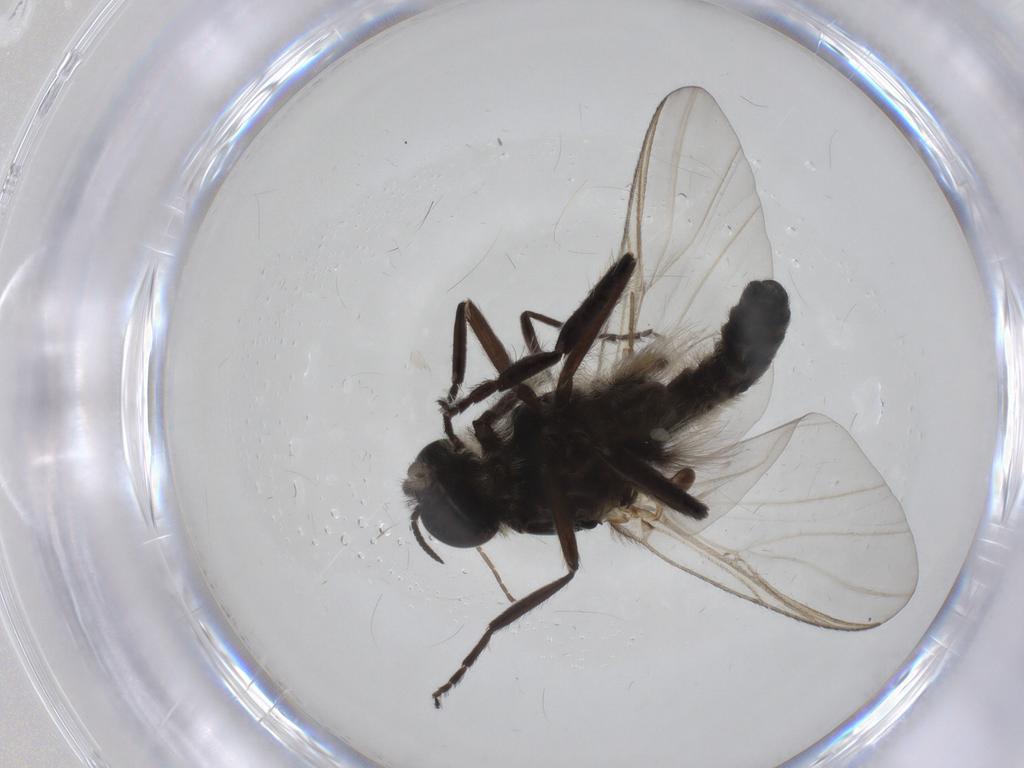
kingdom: Animalia
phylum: Arthropoda
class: Insecta
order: Diptera
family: Simuliidae
